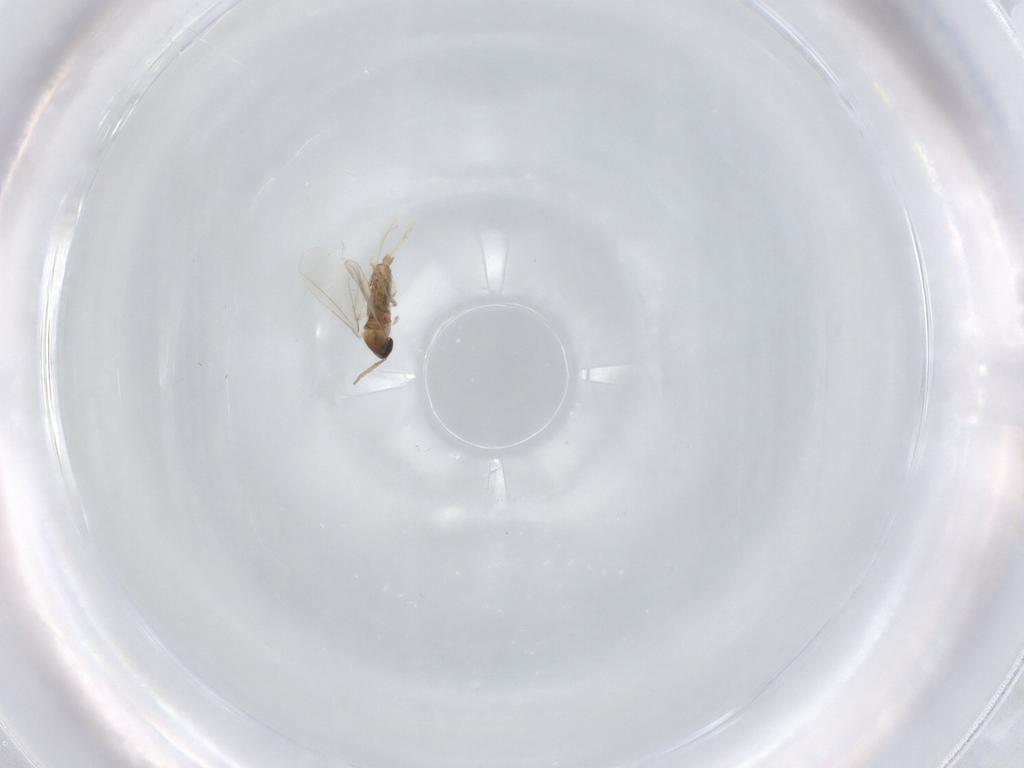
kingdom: Animalia
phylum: Arthropoda
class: Insecta
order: Diptera
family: Cecidomyiidae
